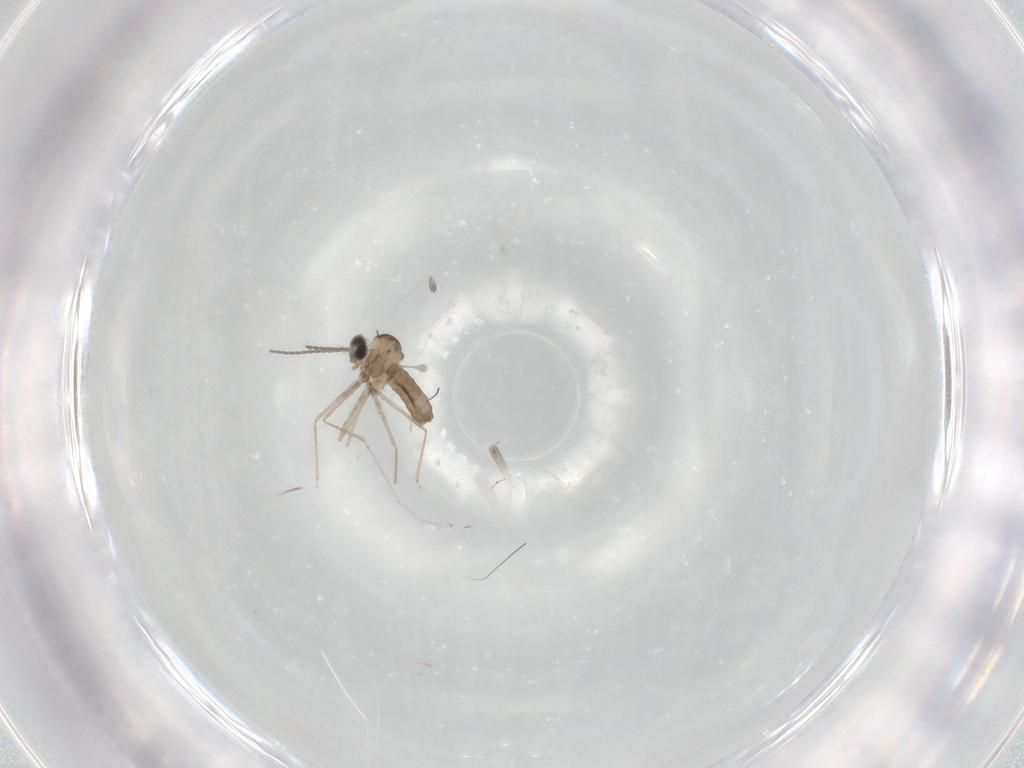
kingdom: Animalia
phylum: Arthropoda
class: Insecta
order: Diptera
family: Cecidomyiidae
